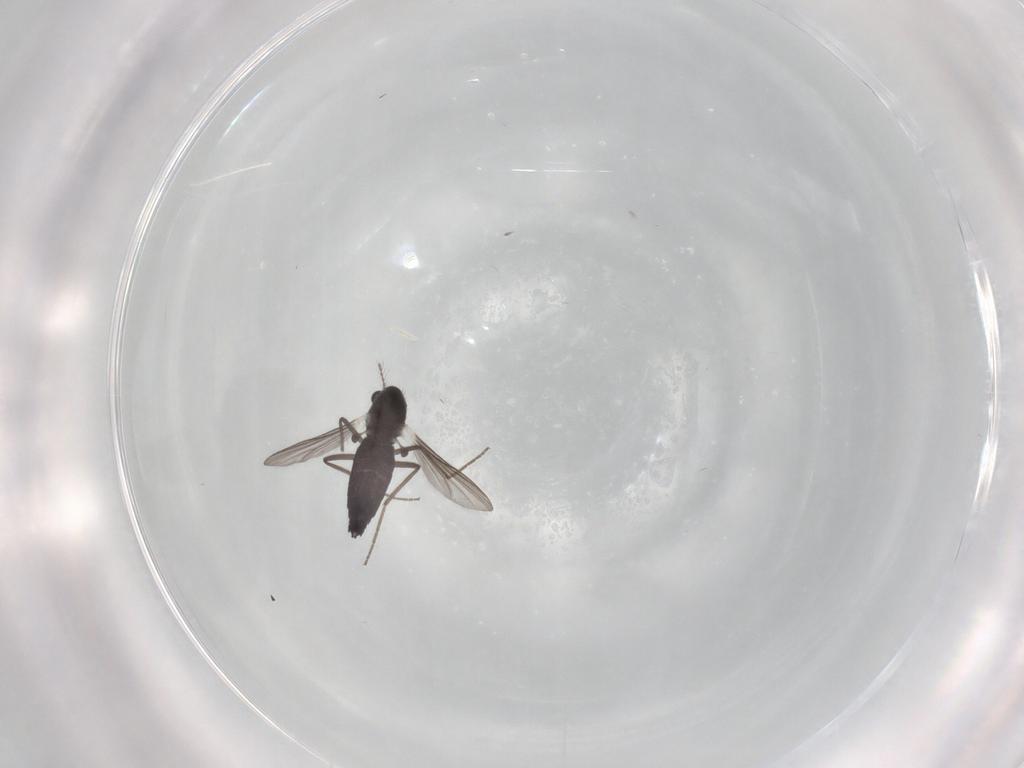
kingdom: Animalia
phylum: Arthropoda
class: Insecta
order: Diptera
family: Chironomidae
